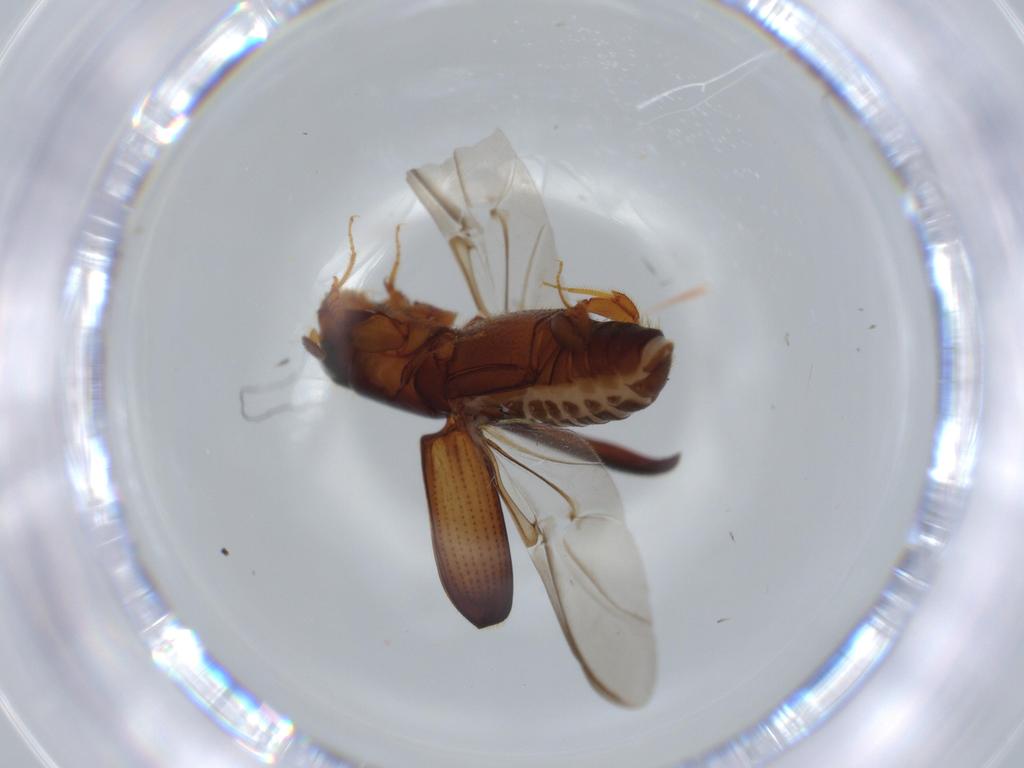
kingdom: Animalia
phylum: Arthropoda
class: Insecta
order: Coleoptera
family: Curculionidae
